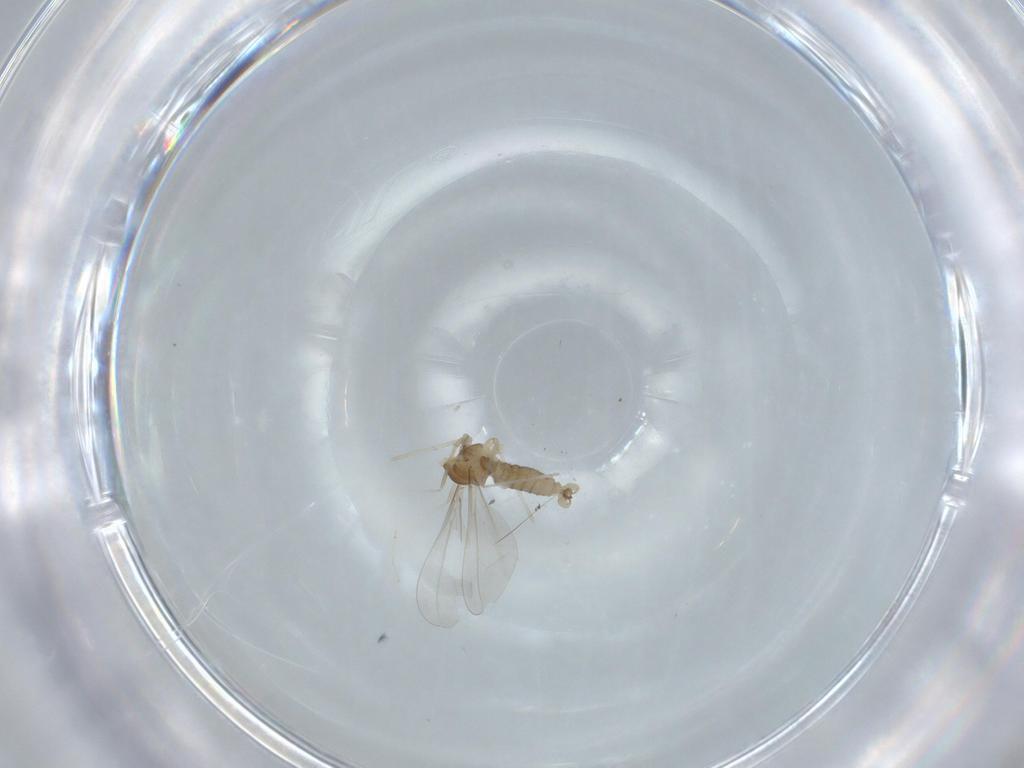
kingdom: Animalia
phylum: Arthropoda
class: Insecta
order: Diptera
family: Cecidomyiidae
